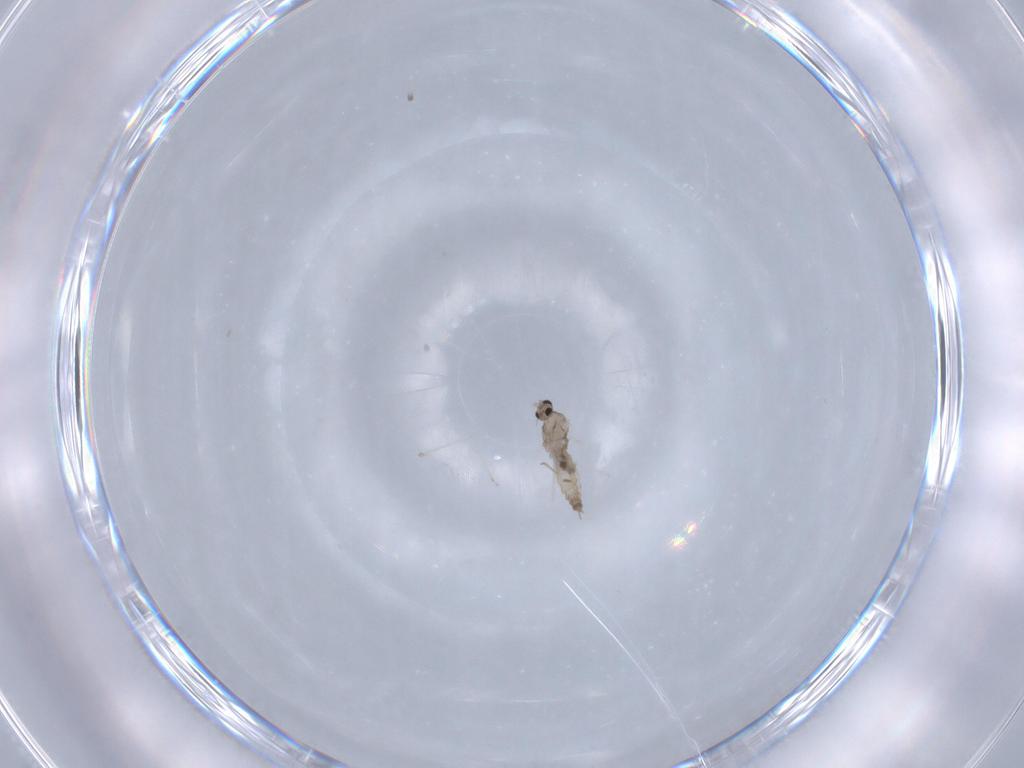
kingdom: Animalia
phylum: Arthropoda
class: Insecta
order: Diptera
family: Cecidomyiidae
